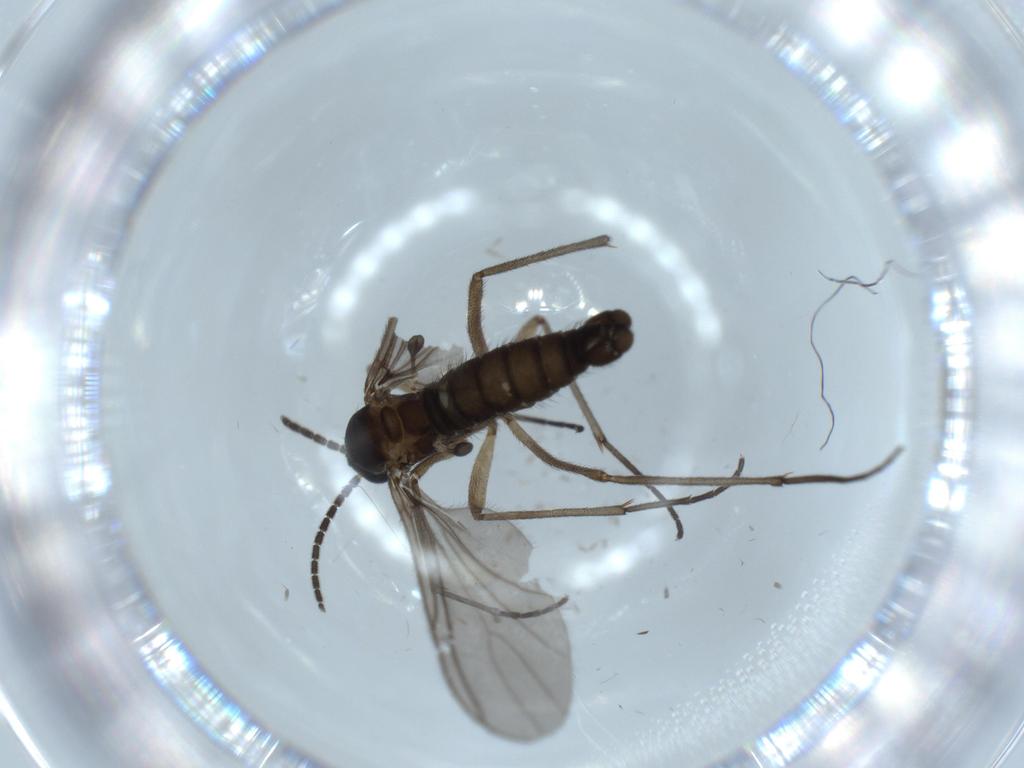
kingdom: Animalia
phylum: Arthropoda
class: Insecta
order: Diptera
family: Sciaridae
